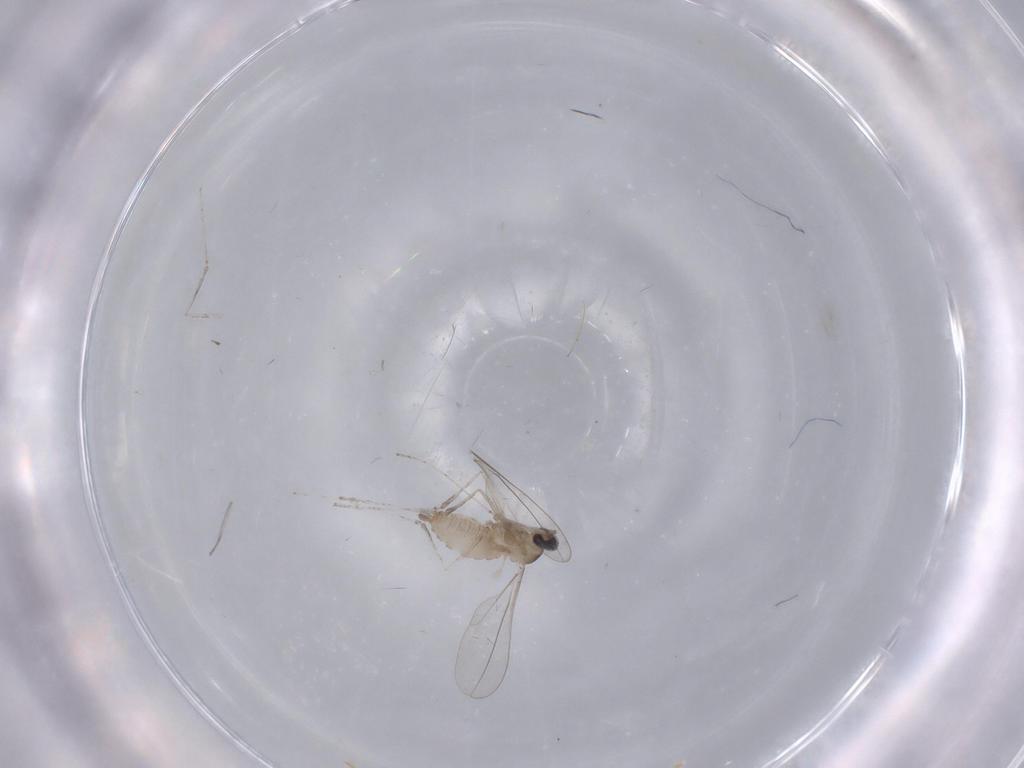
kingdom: Animalia
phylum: Arthropoda
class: Insecta
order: Diptera
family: Cecidomyiidae
